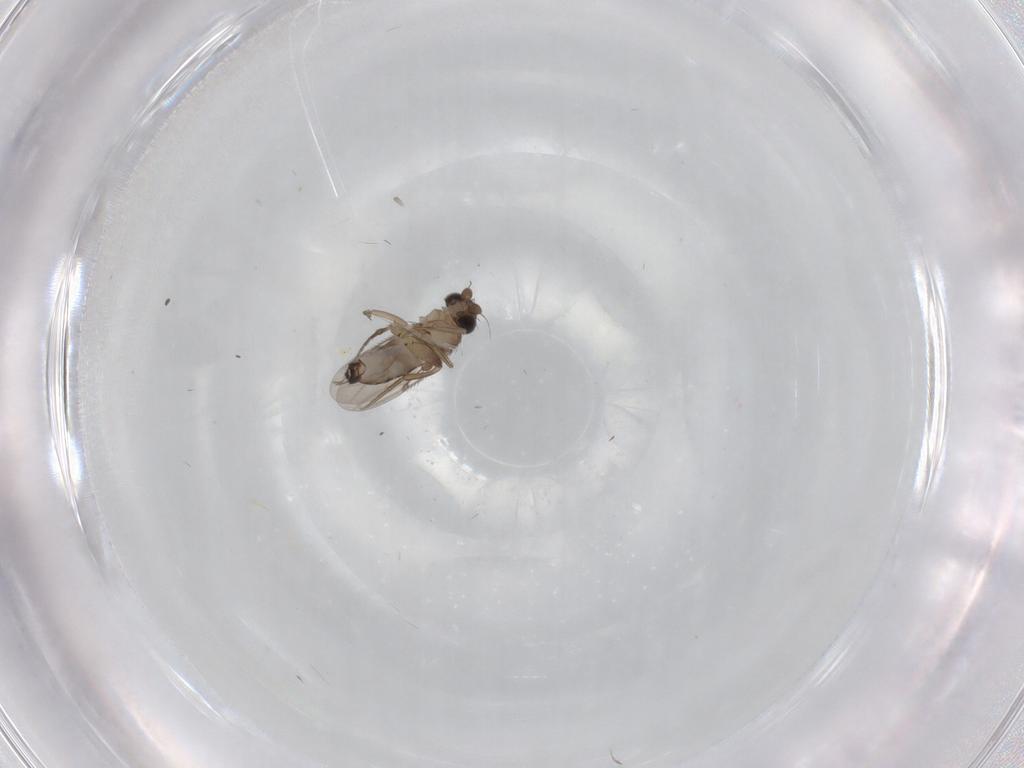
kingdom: Animalia
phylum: Arthropoda
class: Insecta
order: Diptera
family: Phoridae
